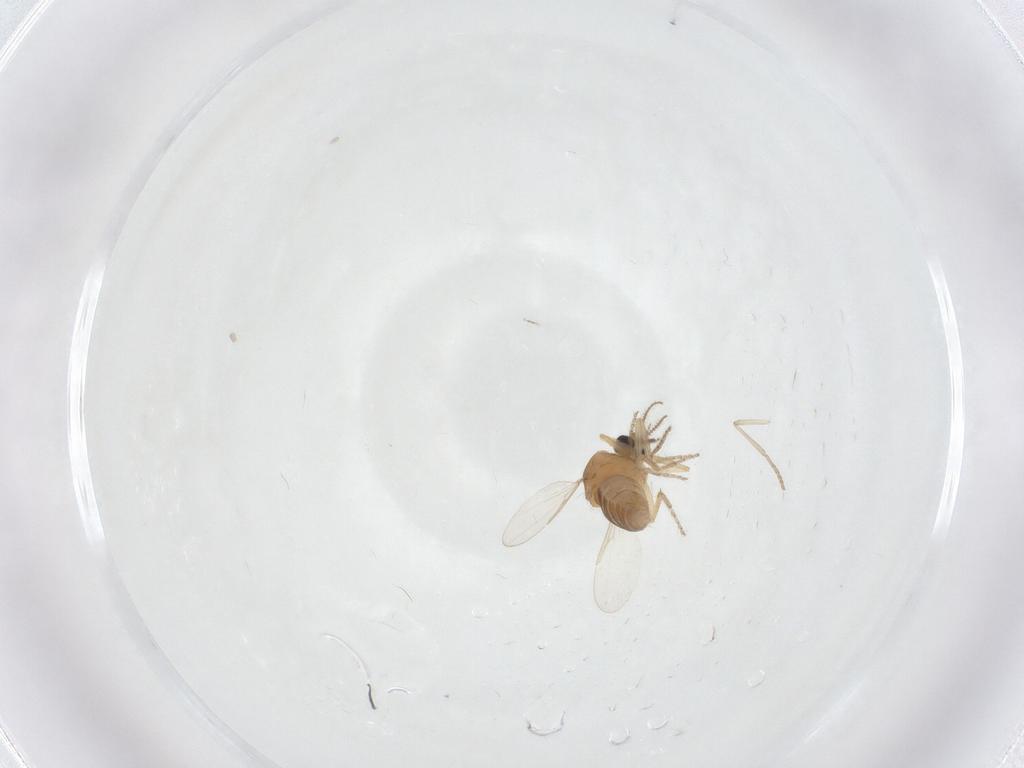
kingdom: Animalia
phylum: Arthropoda
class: Insecta
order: Diptera
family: Ceratopogonidae
